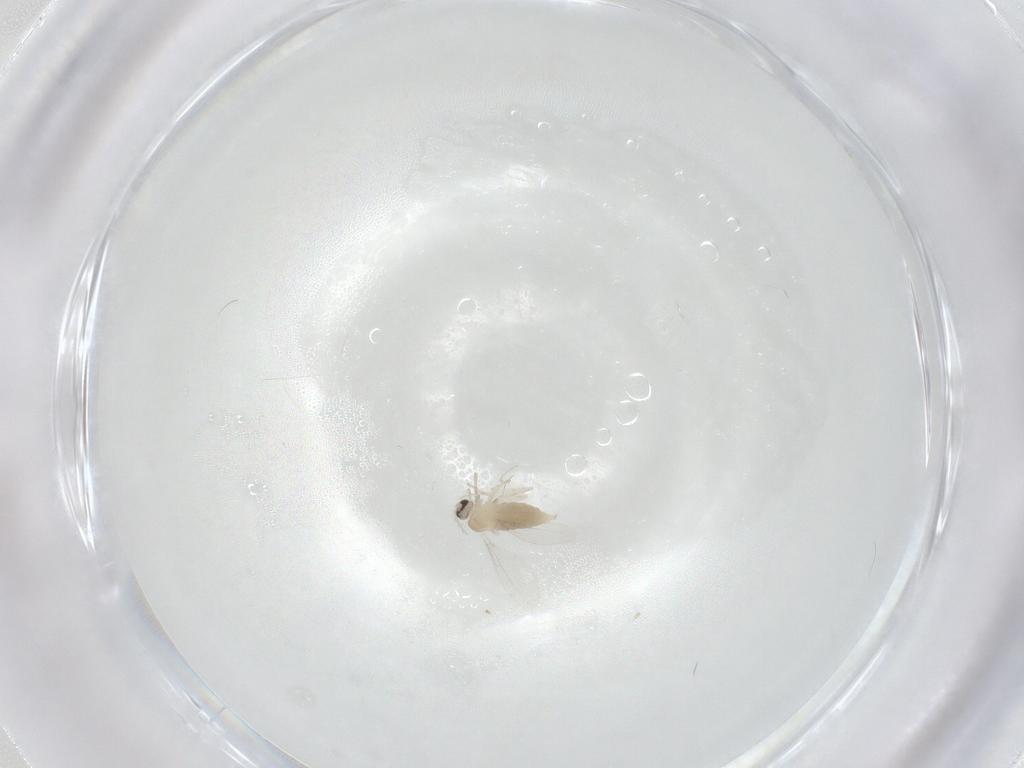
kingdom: Animalia
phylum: Arthropoda
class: Insecta
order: Diptera
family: Cecidomyiidae
